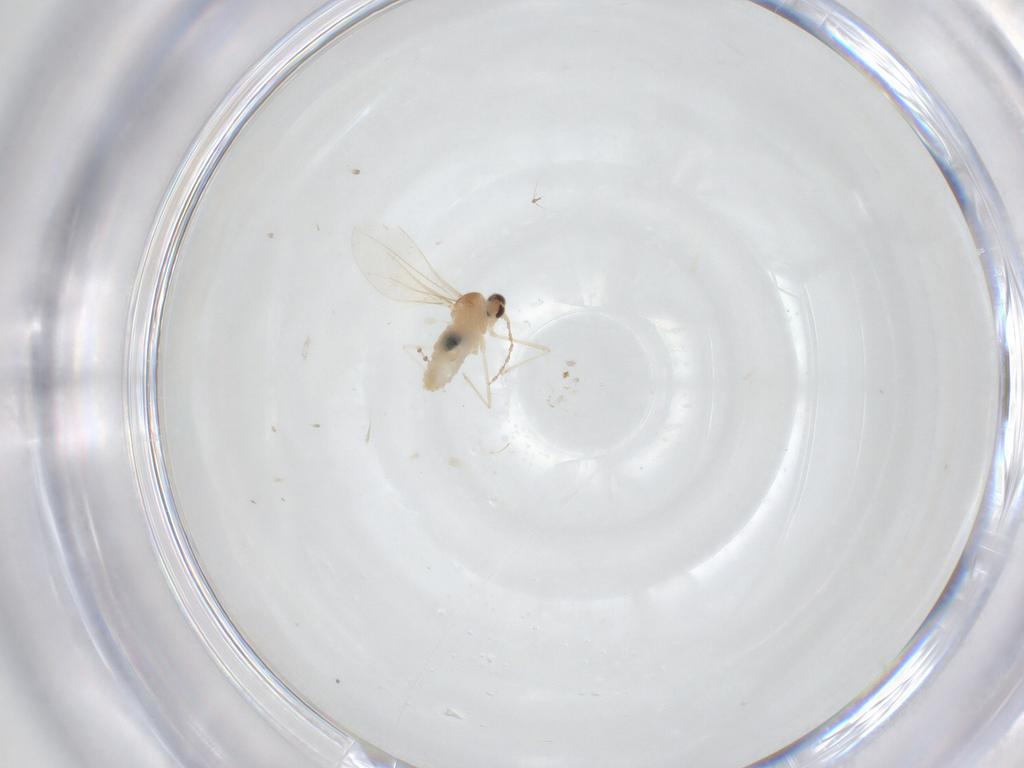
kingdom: Animalia
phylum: Arthropoda
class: Insecta
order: Diptera
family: Cecidomyiidae
